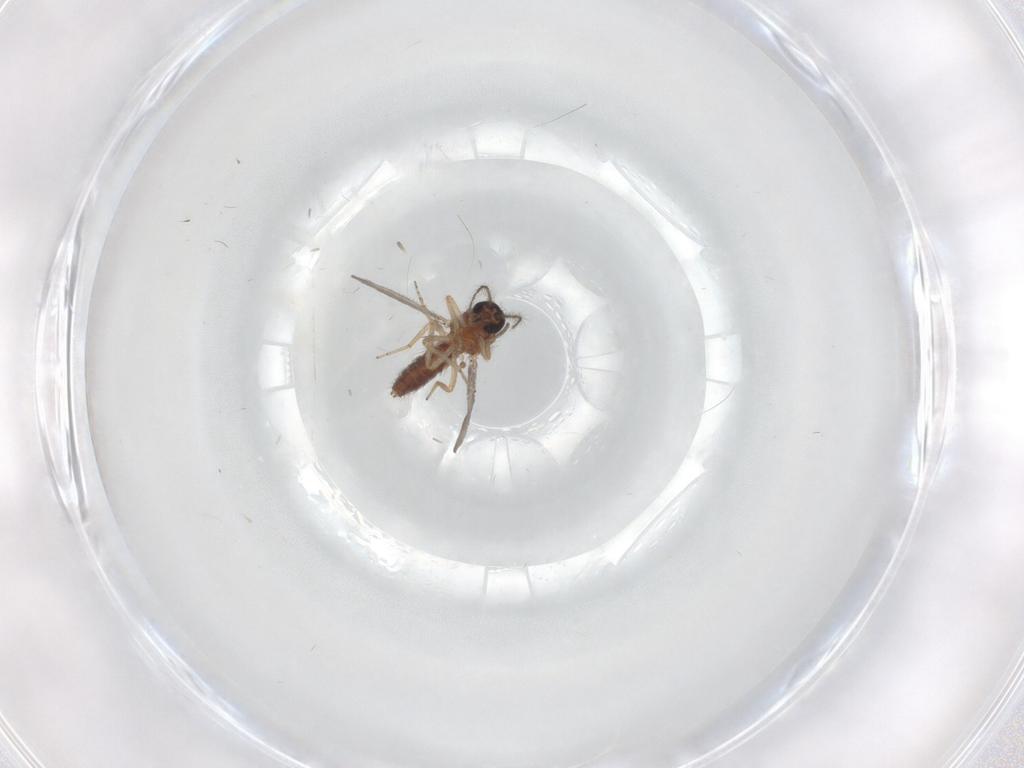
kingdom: Animalia
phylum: Arthropoda
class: Insecta
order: Diptera
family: Ceratopogonidae
